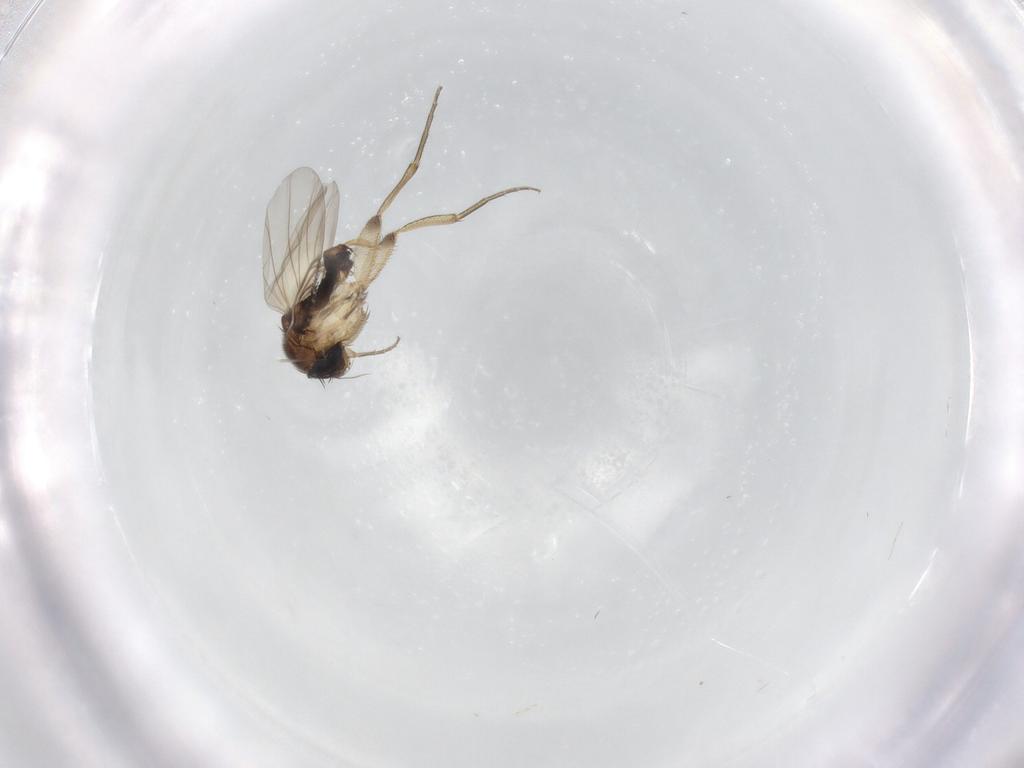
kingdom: Animalia
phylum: Arthropoda
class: Insecta
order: Diptera
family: Phoridae
